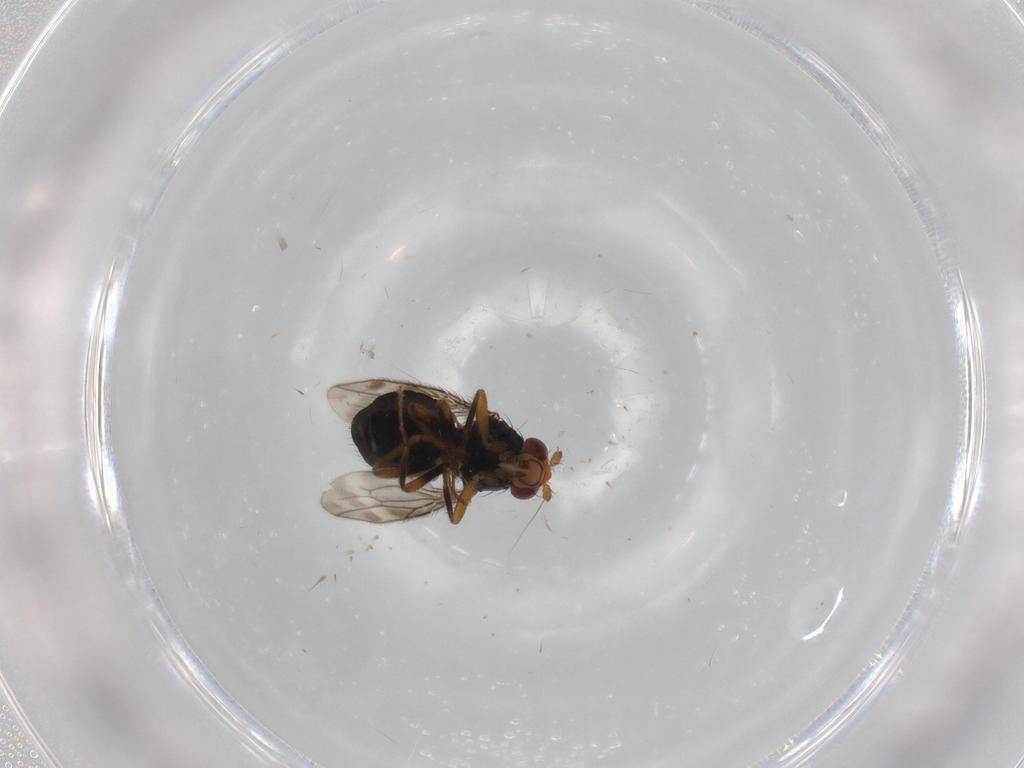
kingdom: Animalia
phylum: Arthropoda
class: Insecta
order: Diptera
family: Sphaeroceridae
